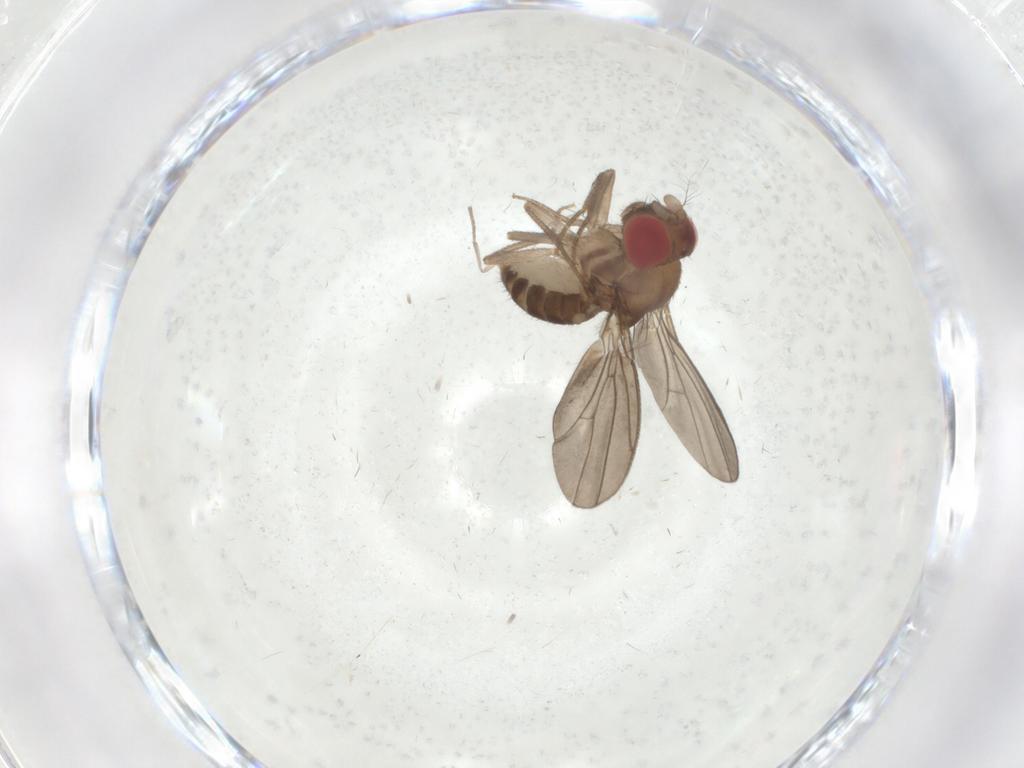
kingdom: Animalia
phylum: Arthropoda
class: Insecta
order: Diptera
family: Drosophilidae
